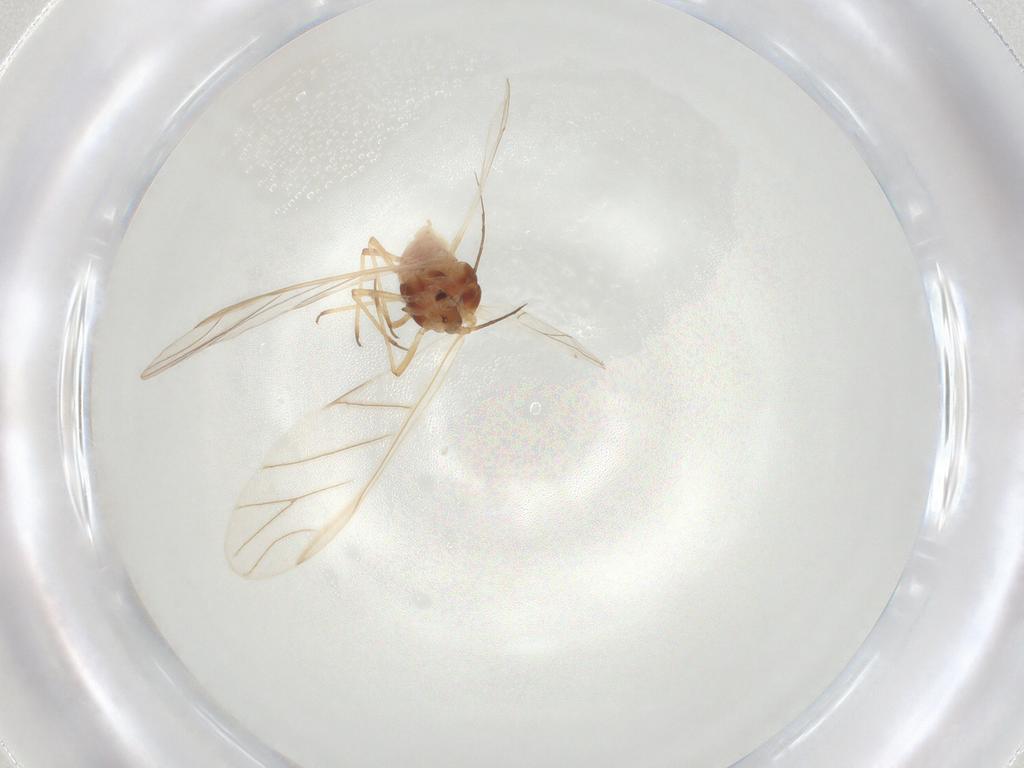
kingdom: Animalia
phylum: Arthropoda
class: Insecta
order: Hemiptera
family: Aphididae
